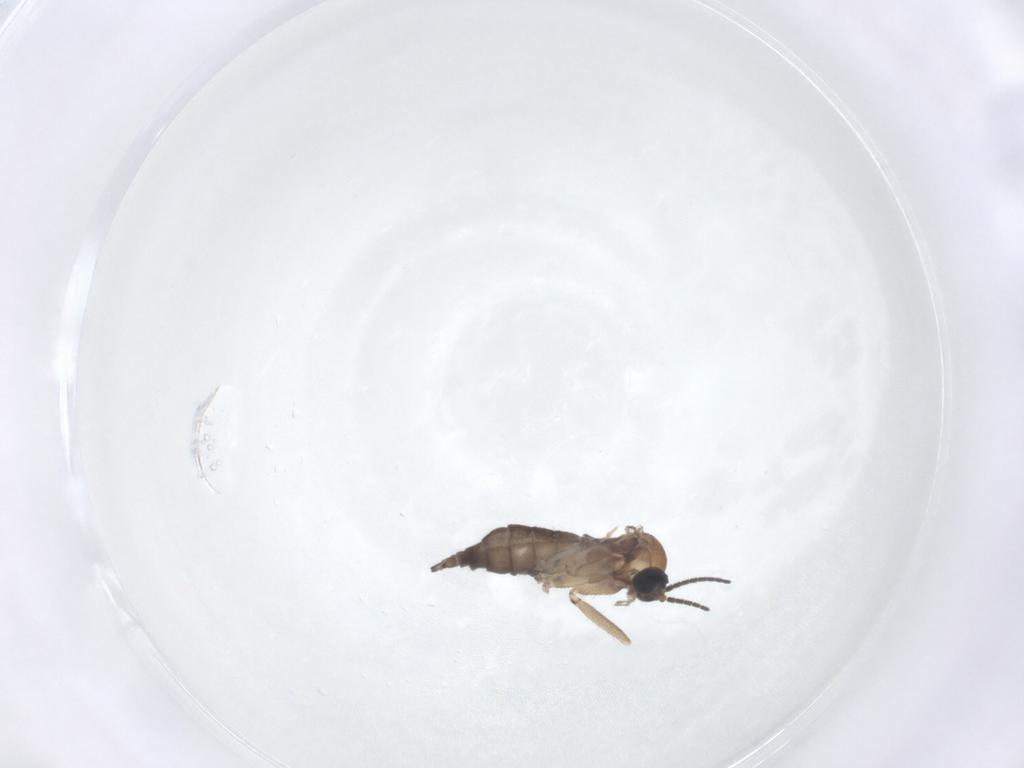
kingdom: Animalia
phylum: Arthropoda
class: Insecta
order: Diptera
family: Sciaridae
